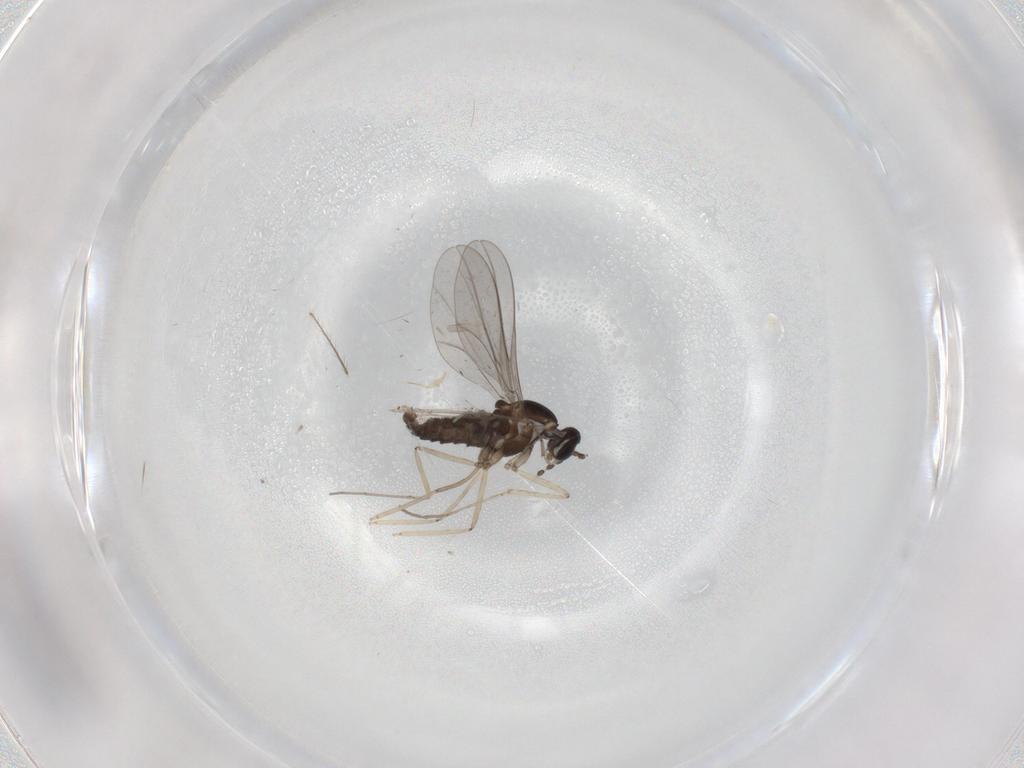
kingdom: Animalia
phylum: Arthropoda
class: Insecta
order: Diptera
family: Cecidomyiidae
